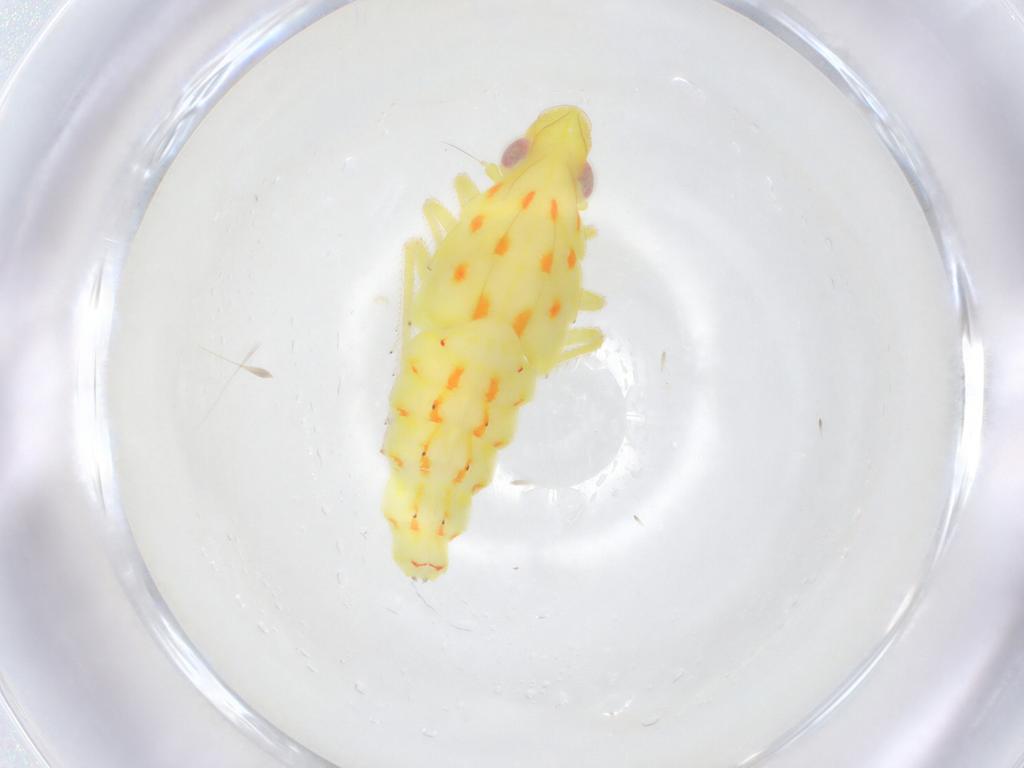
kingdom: Animalia
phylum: Arthropoda
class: Insecta
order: Hemiptera
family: Tropiduchidae
